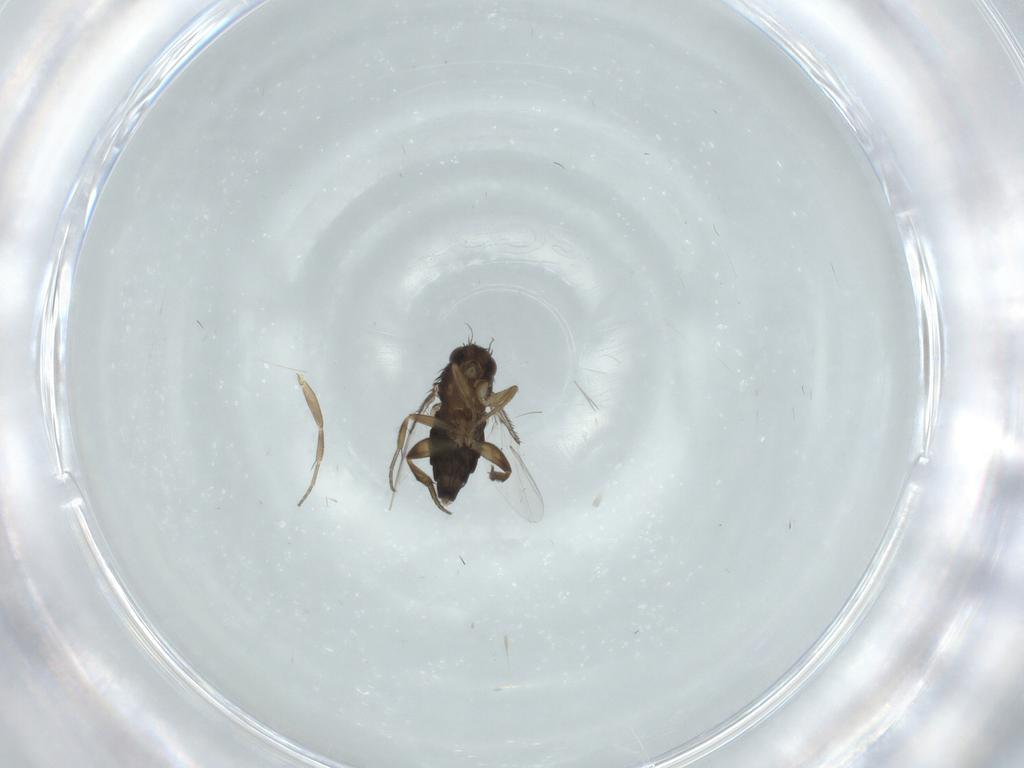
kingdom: Animalia
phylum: Arthropoda
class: Insecta
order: Diptera
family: Phoridae
